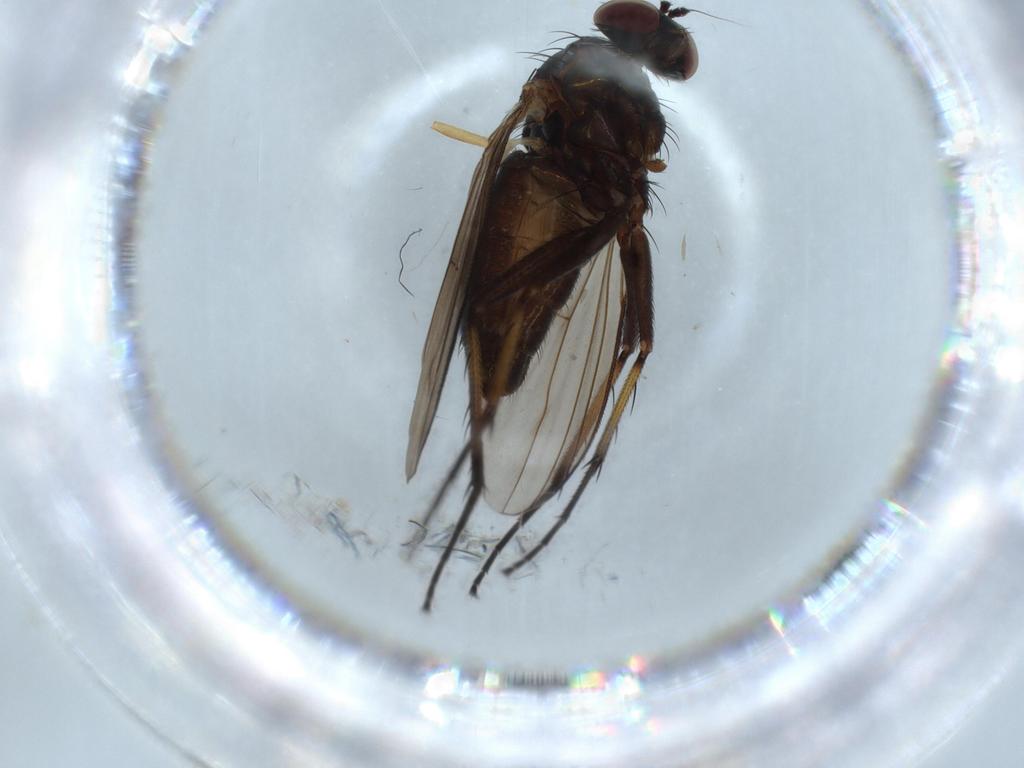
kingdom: Animalia
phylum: Arthropoda
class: Insecta
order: Diptera
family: Dolichopodidae
